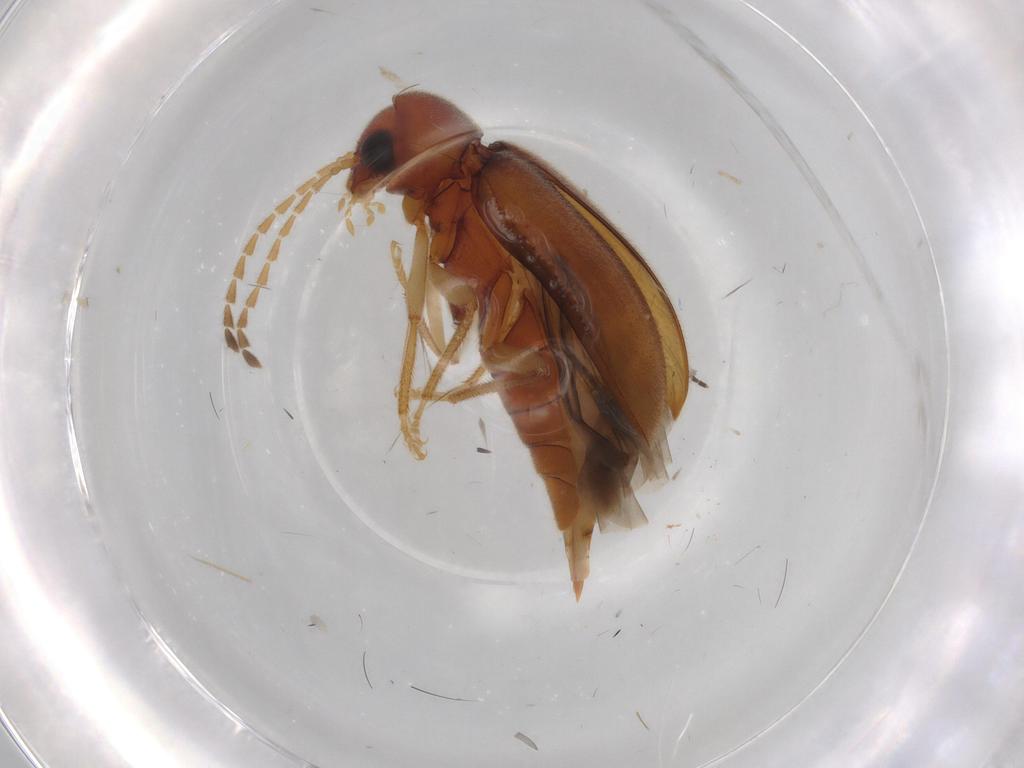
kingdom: Animalia
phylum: Arthropoda
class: Insecta
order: Coleoptera
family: Ptilodactylidae
